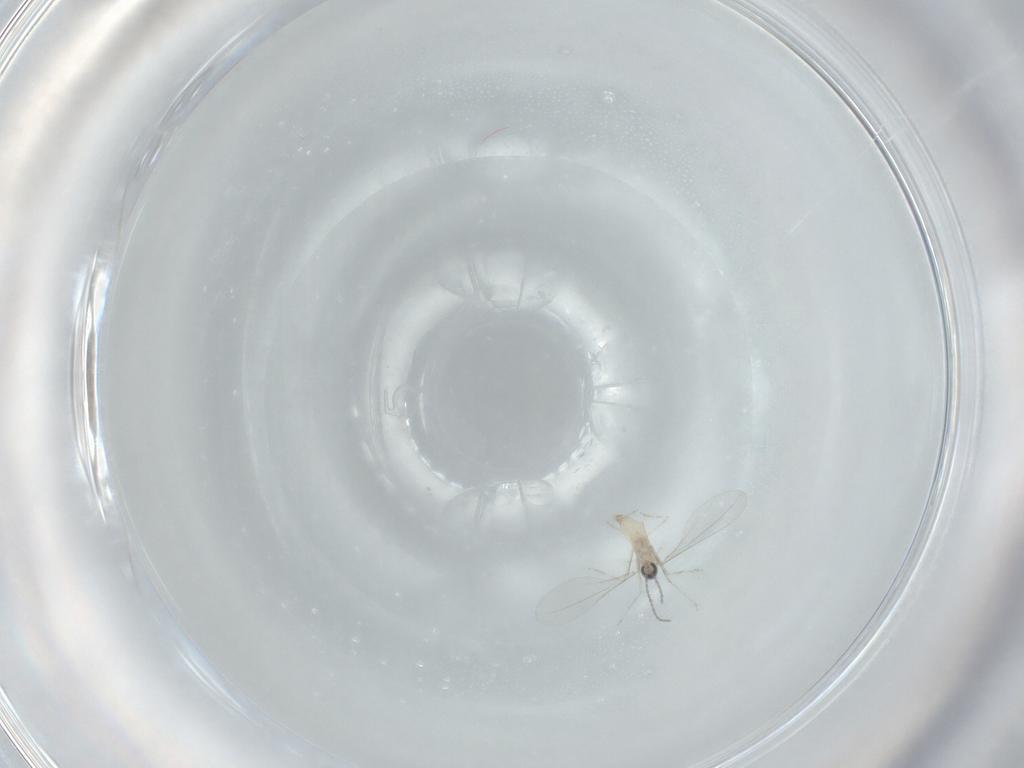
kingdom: Animalia
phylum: Arthropoda
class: Insecta
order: Diptera
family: Cecidomyiidae
